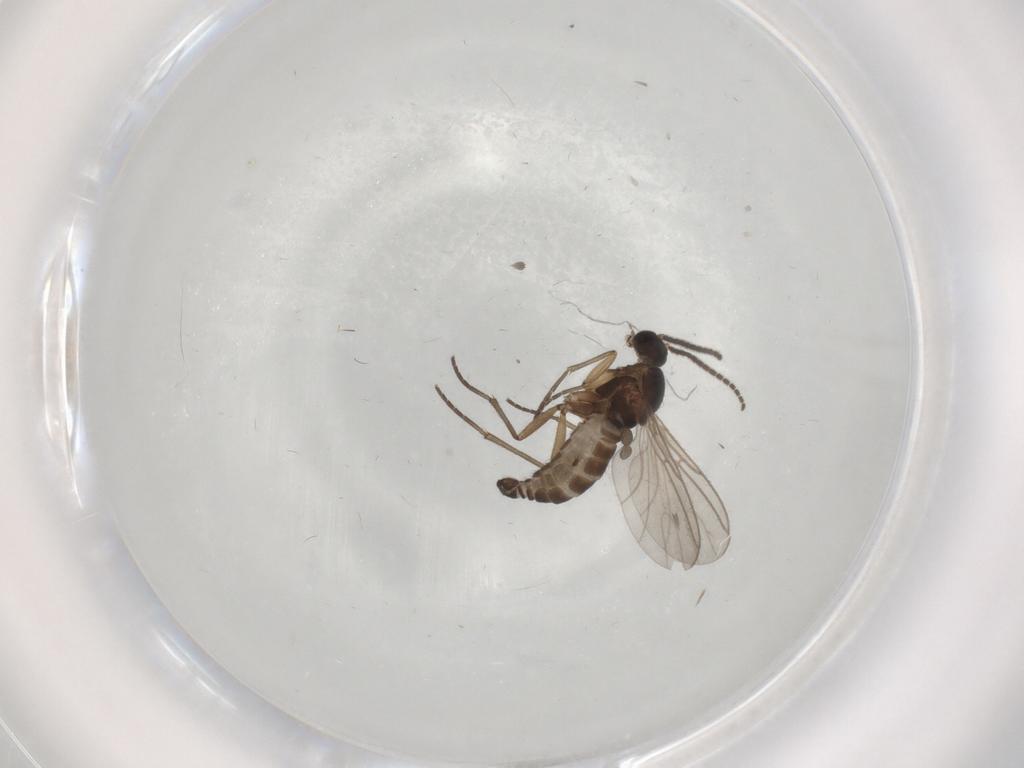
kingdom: Animalia
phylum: Arthropoda
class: Insecta
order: Diptera
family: Sciaridae
